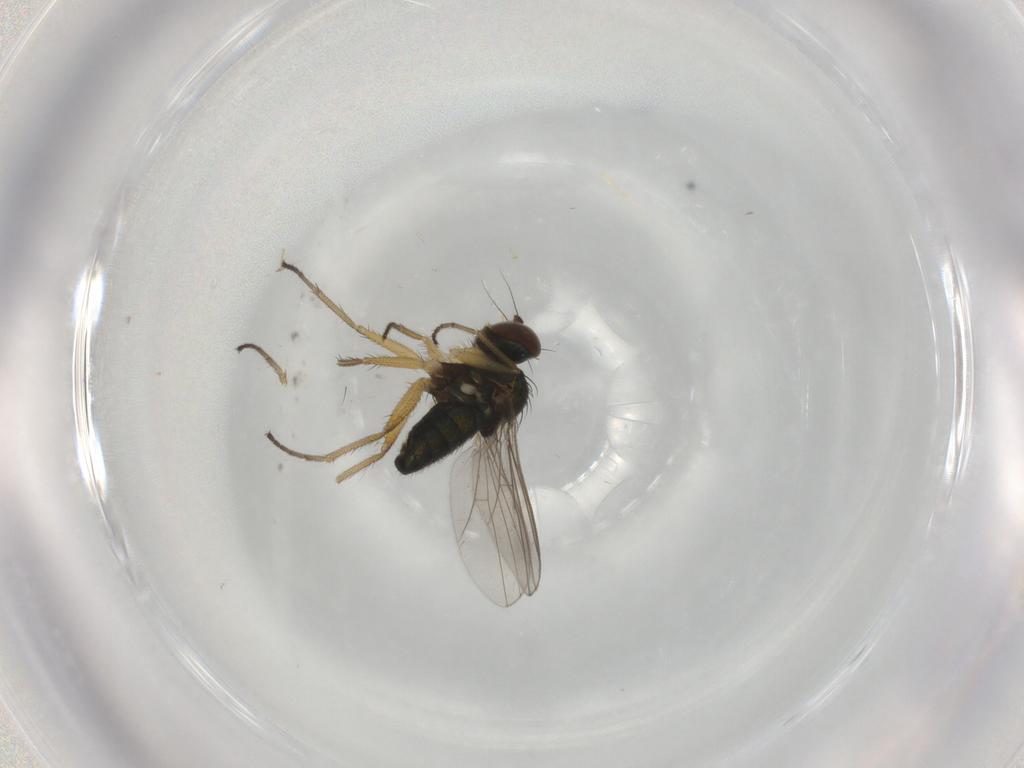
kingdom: Animalia
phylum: Arthropoda
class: Insecta
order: Diptera
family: Dolichopodidae
